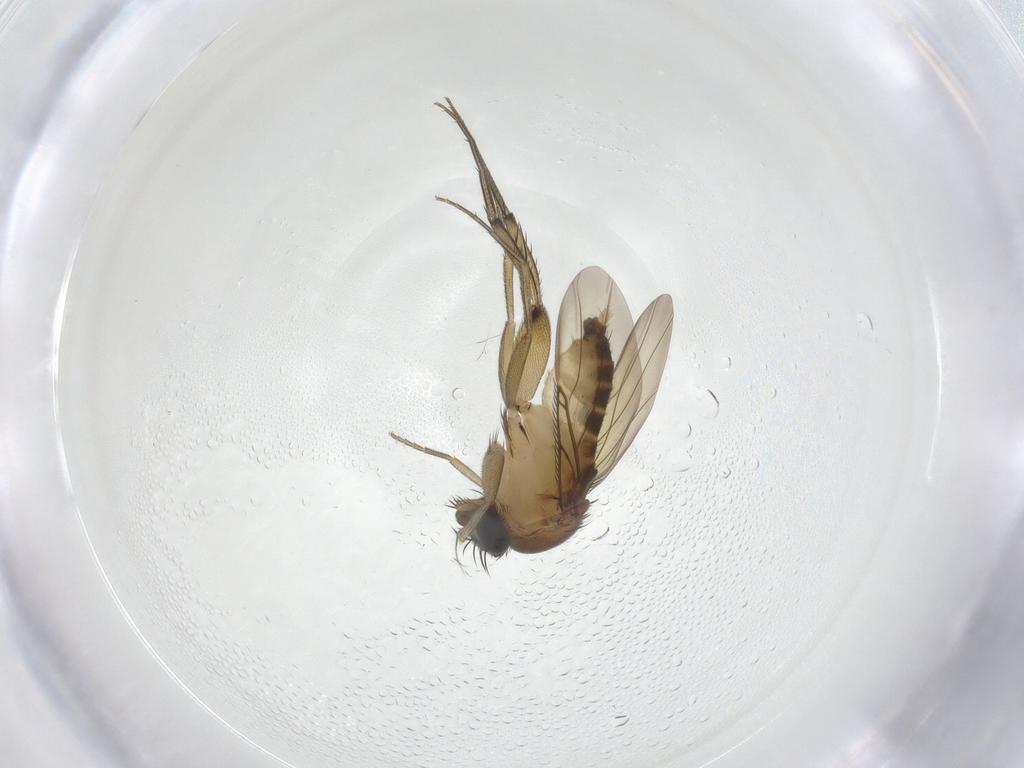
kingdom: Animalia
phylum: Arthropoda
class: Insecta
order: Diptera
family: Phoridae
